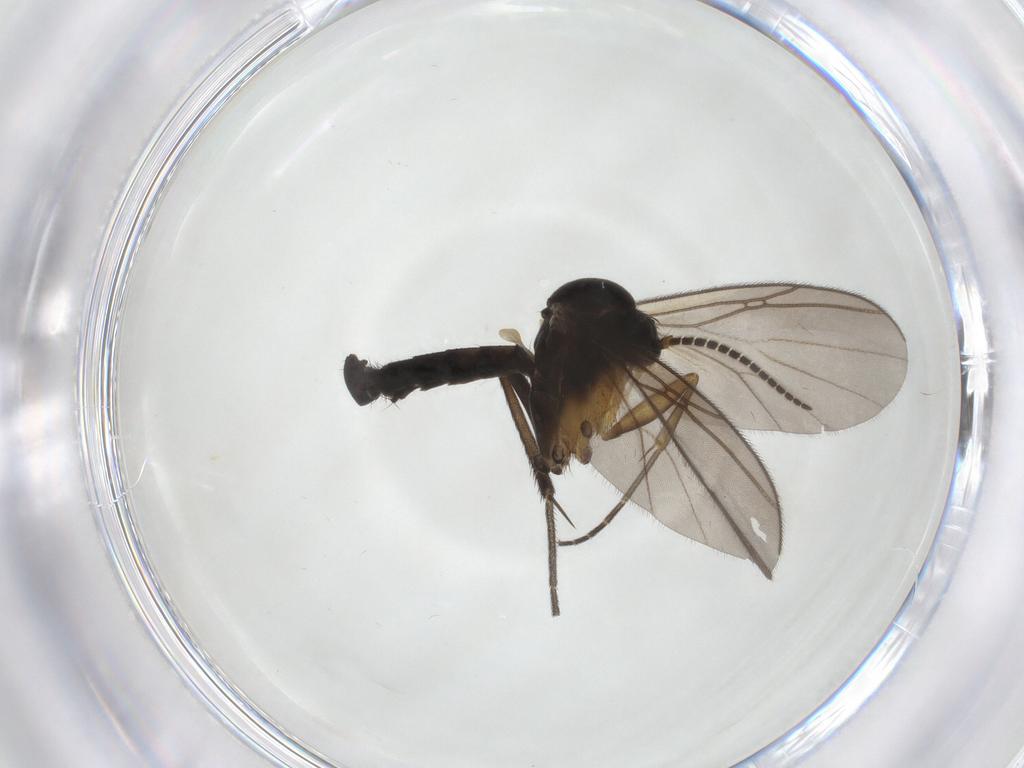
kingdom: Animalia
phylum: Arthropoda
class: Insecta
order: Diptera
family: Mycetophilidae
